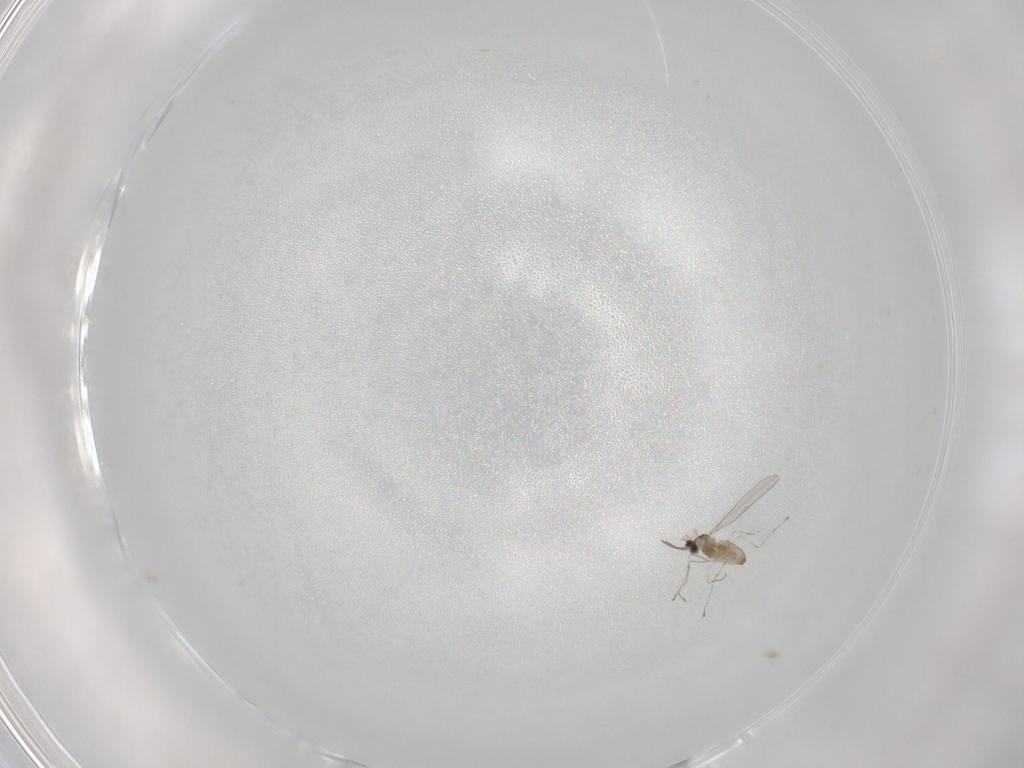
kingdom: Animalia
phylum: Arthropoda
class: Insecta
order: Diptera
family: Cecidomyiidae
